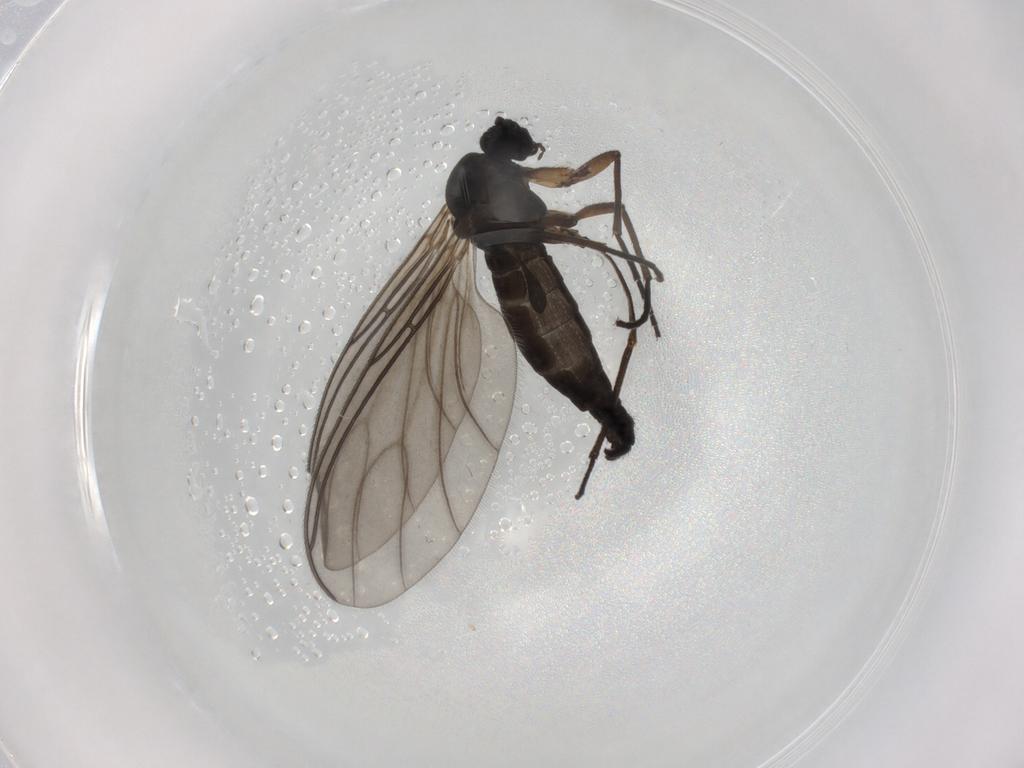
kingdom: Animalia
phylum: Arthropoda
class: Insecta
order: Diptera
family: Sciaridae
